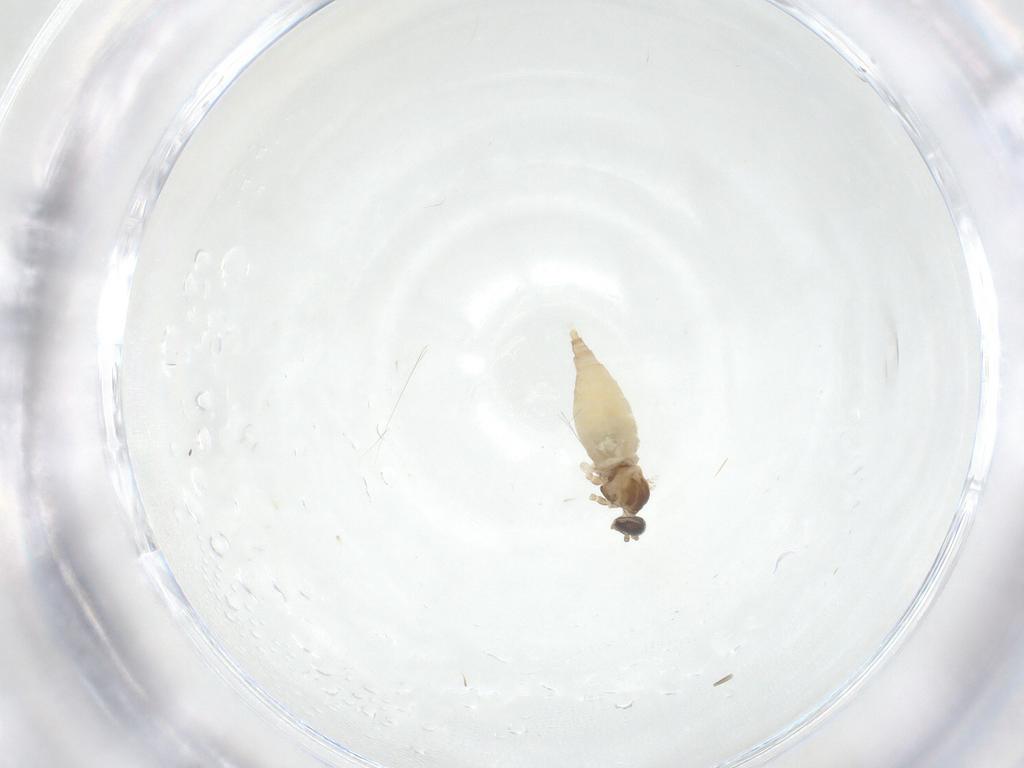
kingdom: Animalia
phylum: Arthropoda
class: Insecta
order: Diptera
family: Cecidomyiidae
